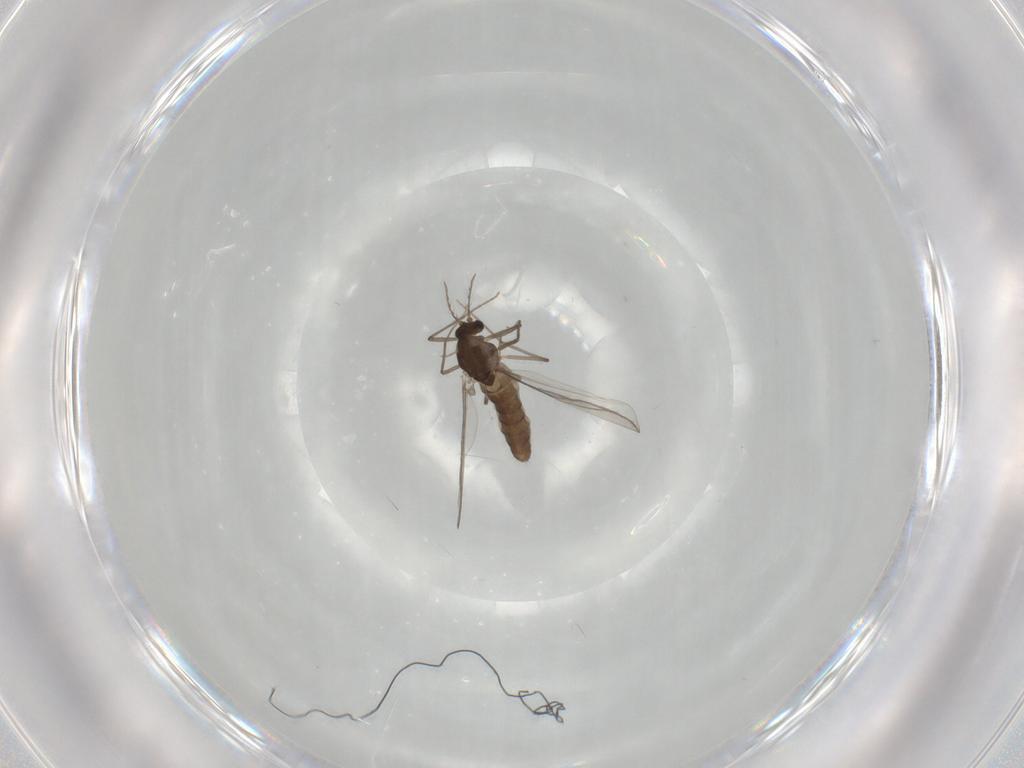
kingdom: Animalia
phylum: Arthropoda
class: Insecta
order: Diptera
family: Chironomidae
